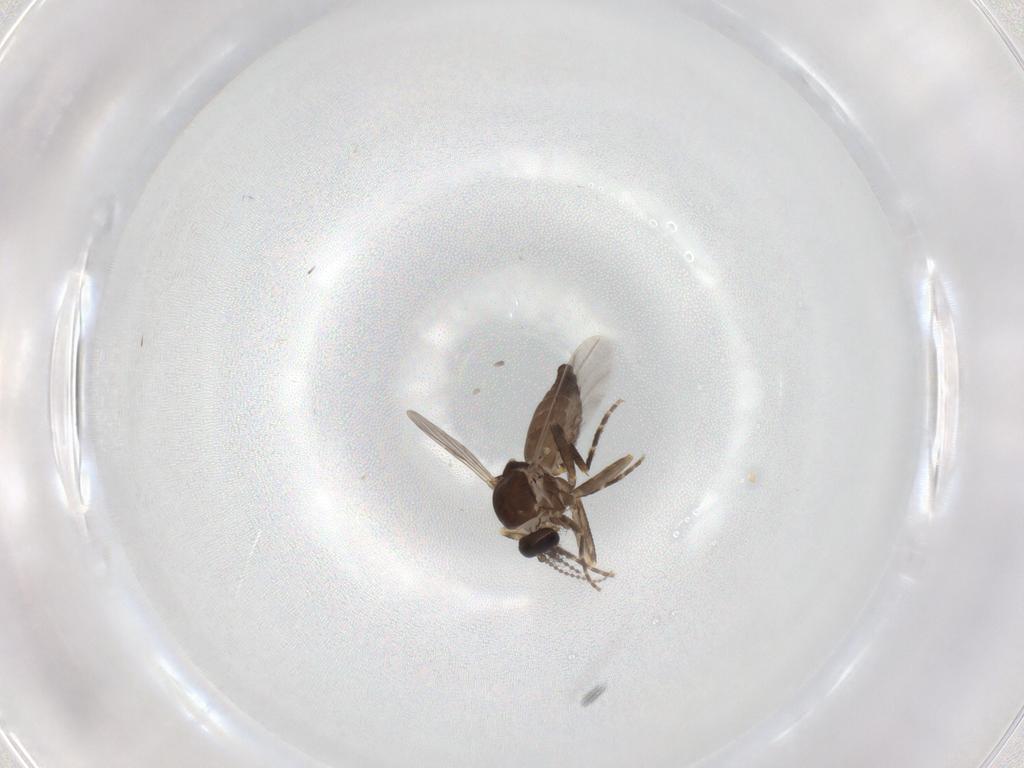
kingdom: Animalia
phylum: Arthropoda
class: Insecta
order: Diptera
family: Ceratopogonidae
